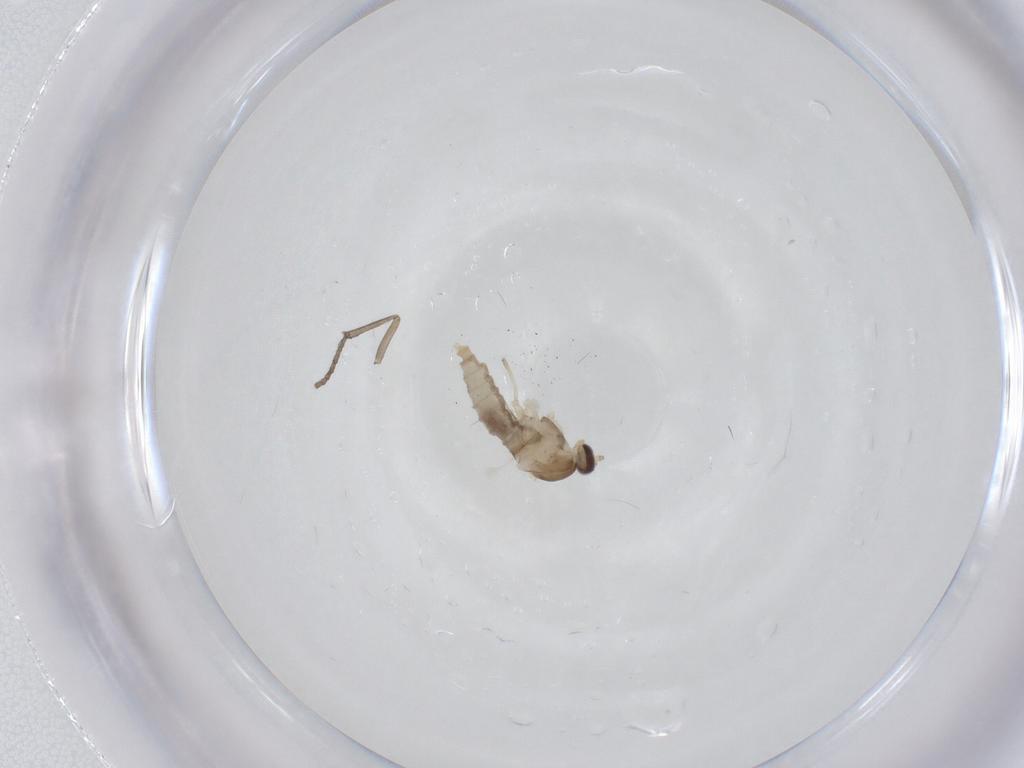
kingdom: Animalia
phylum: Arthropoda
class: Insecta
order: Diptera
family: Cecidomyiidae
